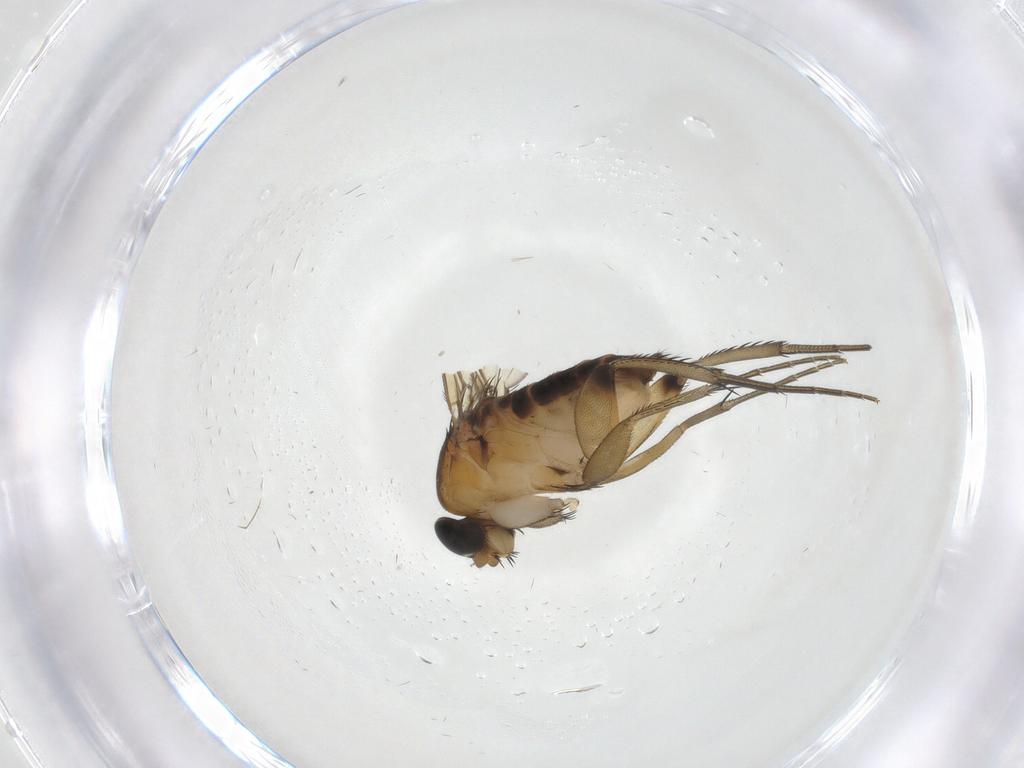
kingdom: Animalia
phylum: Arthropoda
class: Insecta
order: Diptera
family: Phoridae
